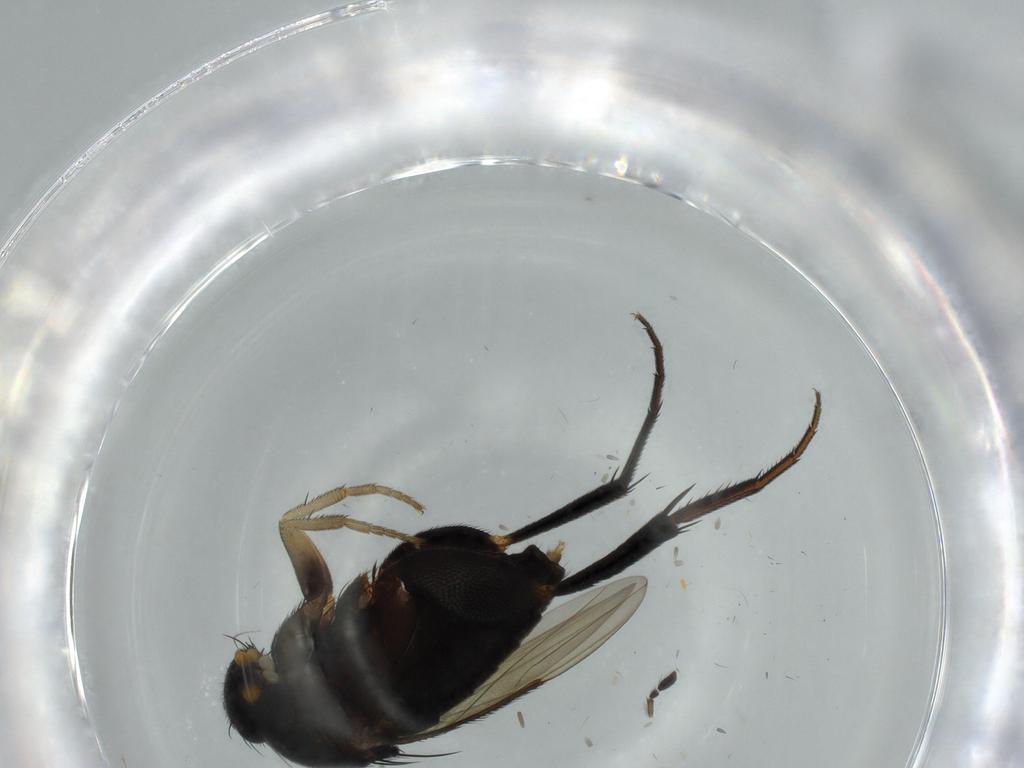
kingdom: Animalia
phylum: Arthropoda
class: Insecta
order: Diptera
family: Phoridae
